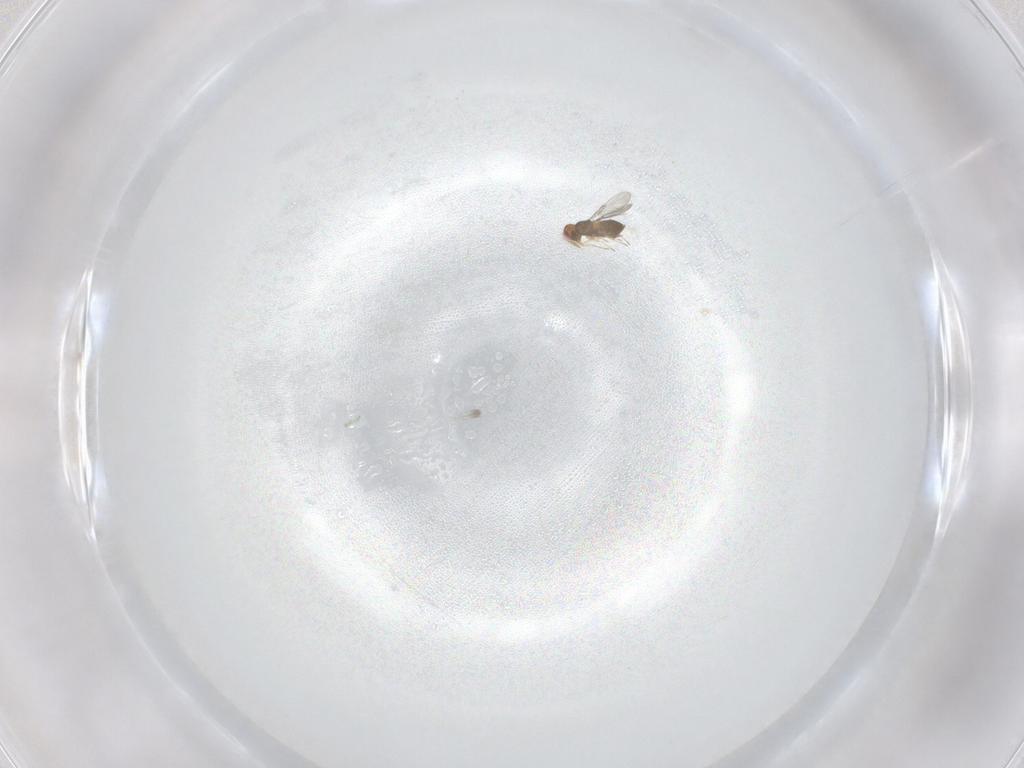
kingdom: Animalia
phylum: Arthropoda
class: Insecta
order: Hymenoptera
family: Trichogrammatidae
